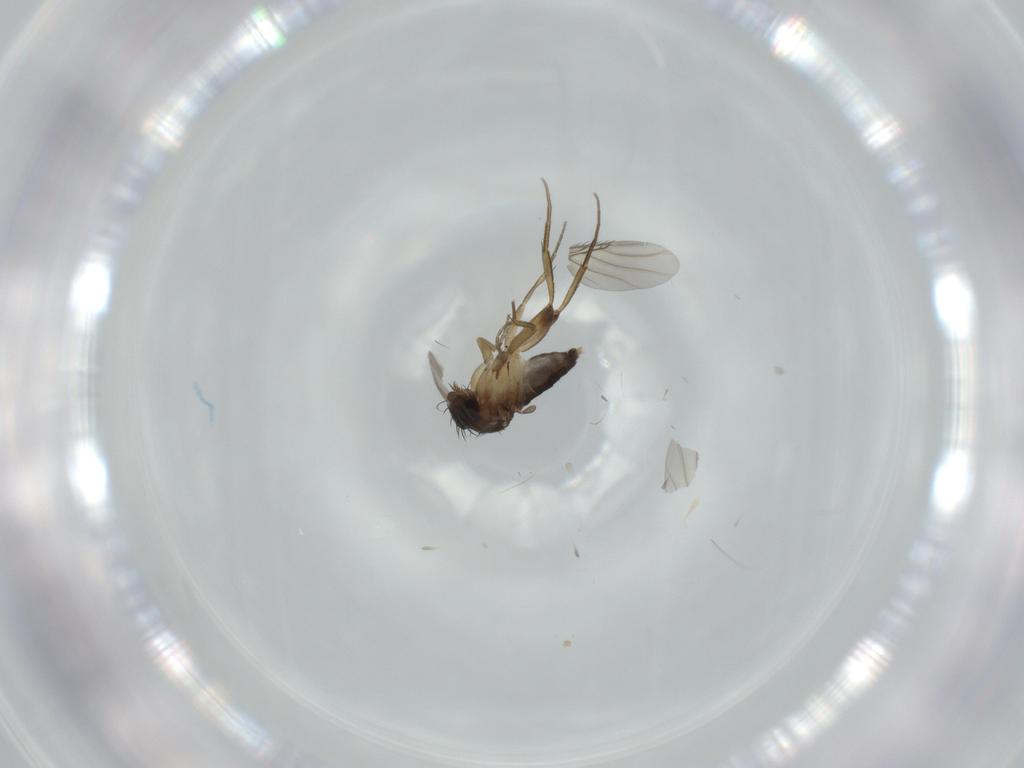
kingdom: Animalia
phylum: Arthropoda
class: Insecta
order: Diptera
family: Phoridae
